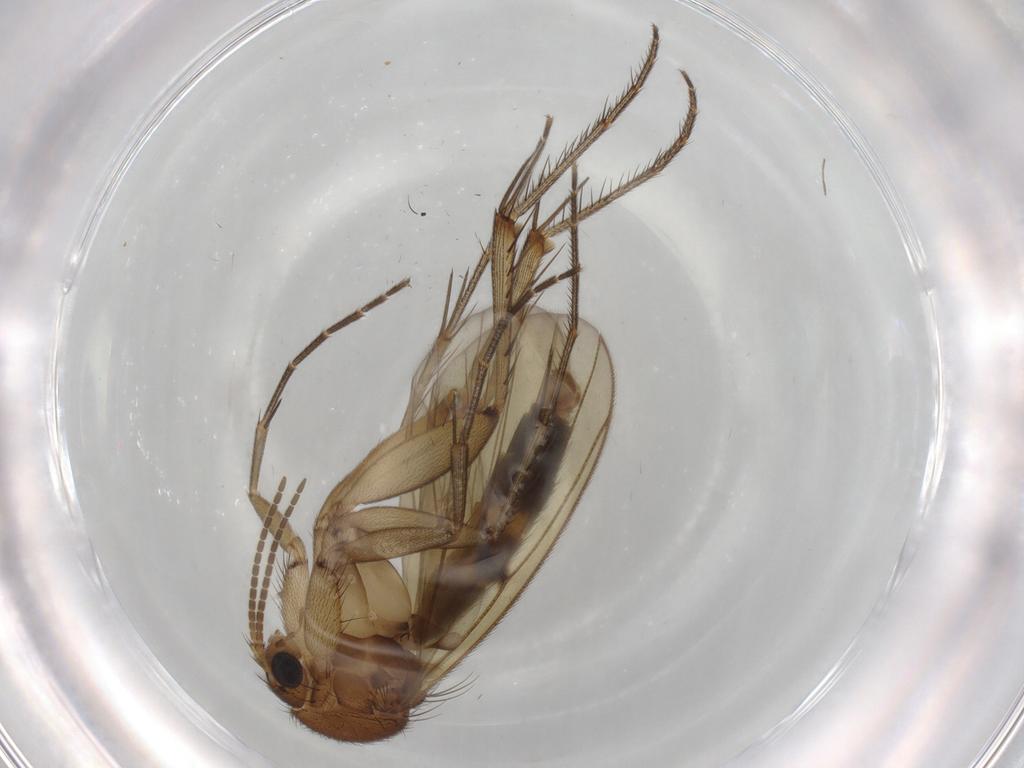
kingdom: Animalia
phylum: Arthropoda
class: Insecta
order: Diptera
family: Mycetophilidae
